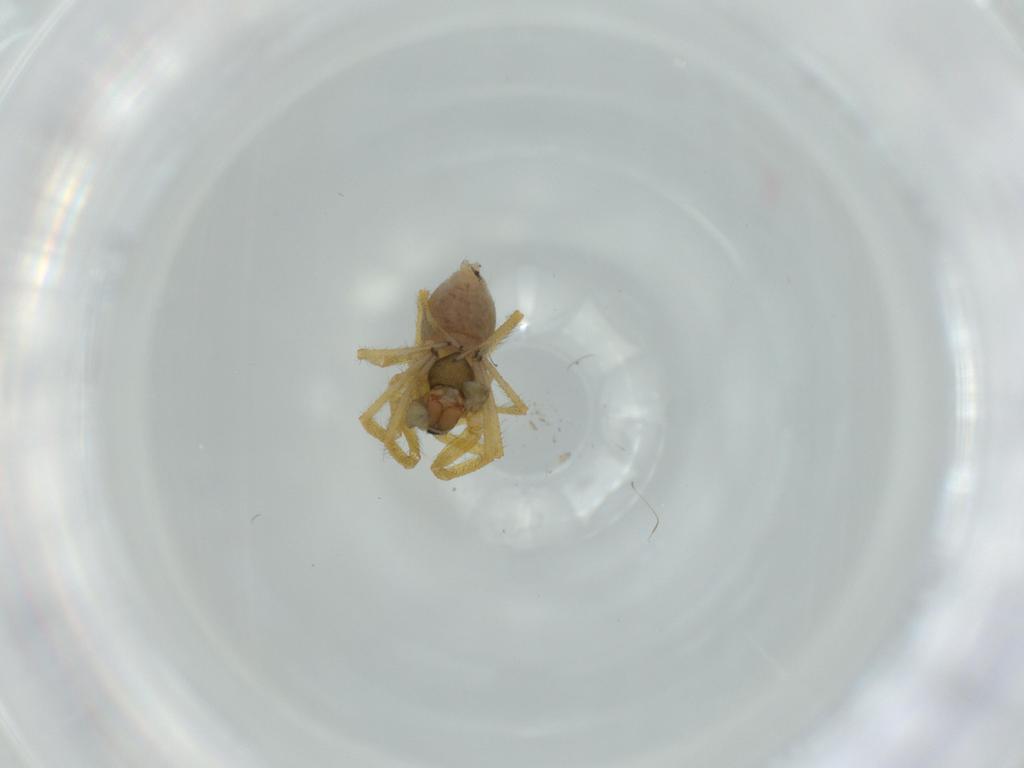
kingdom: Animalia
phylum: Arthropoda
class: Arachnida
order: Araneae
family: Linyphiidae
